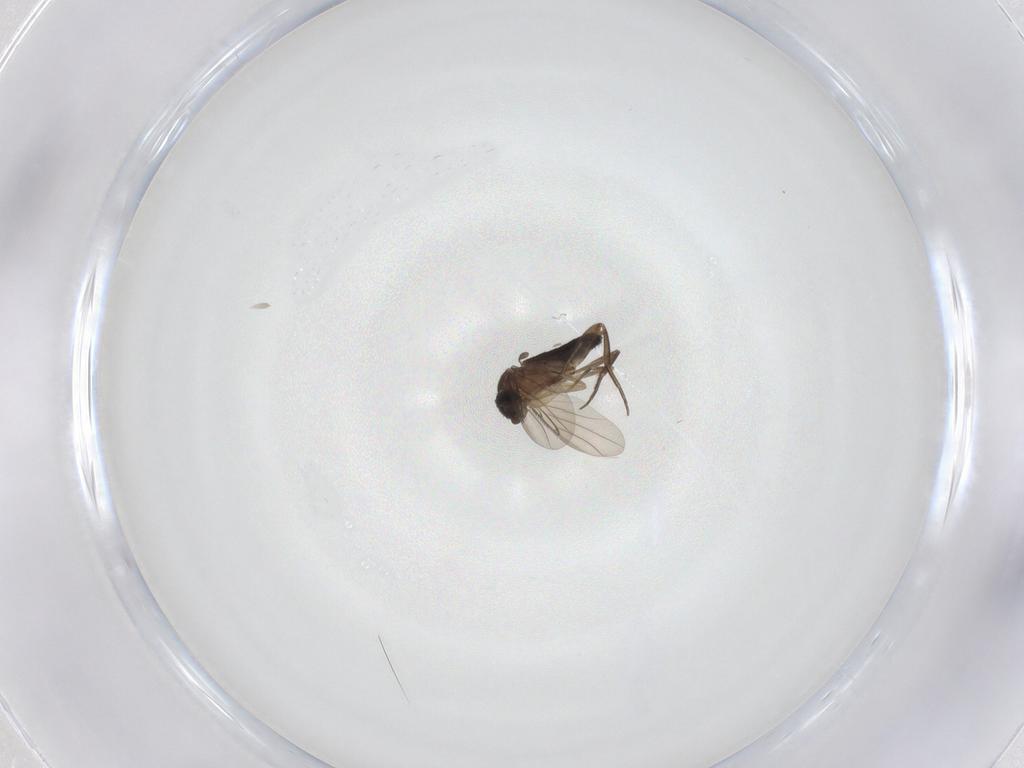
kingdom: Animalia
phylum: Arthropoda
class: Insecta
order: Diptera
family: Phoridae
